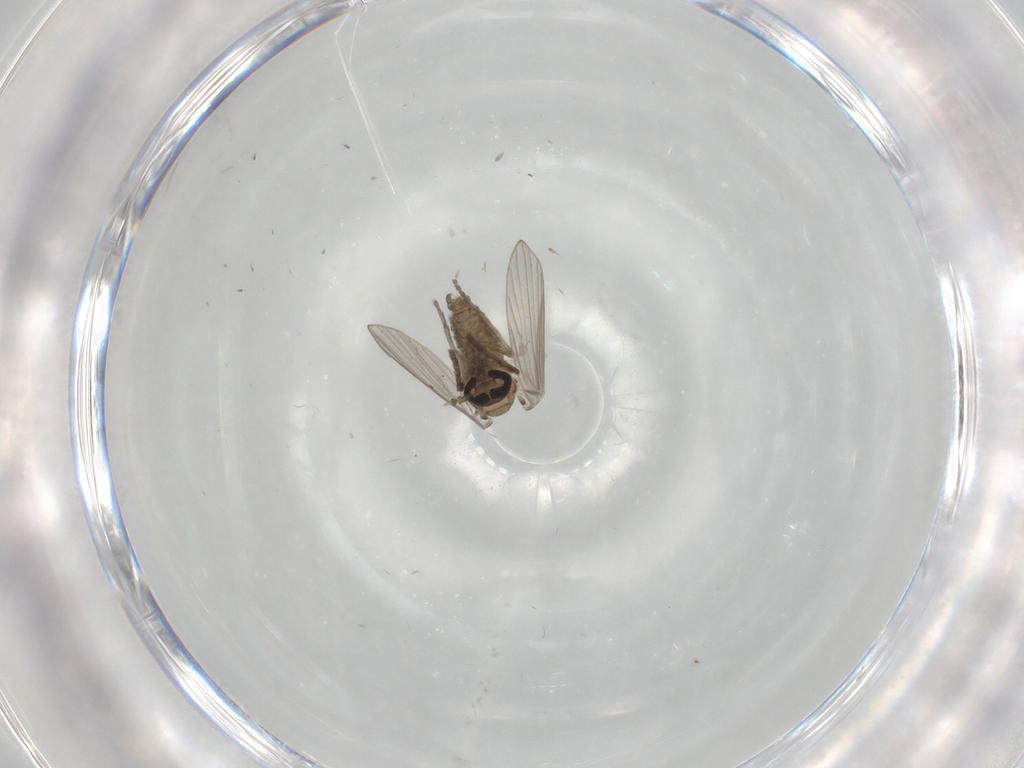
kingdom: Animalia
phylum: Arthropoda
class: Insecta
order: Diptera
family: Psychodidae
